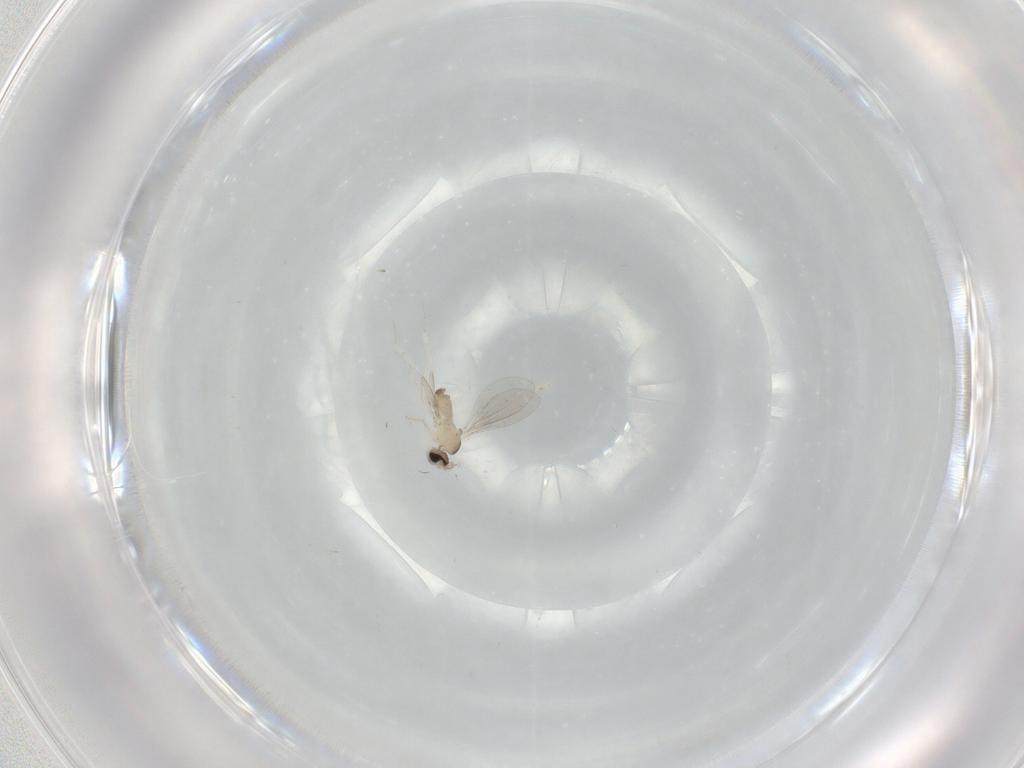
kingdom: Animalia
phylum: Arthropoda
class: Insecta
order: Diptera
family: Cecidomyiidae
